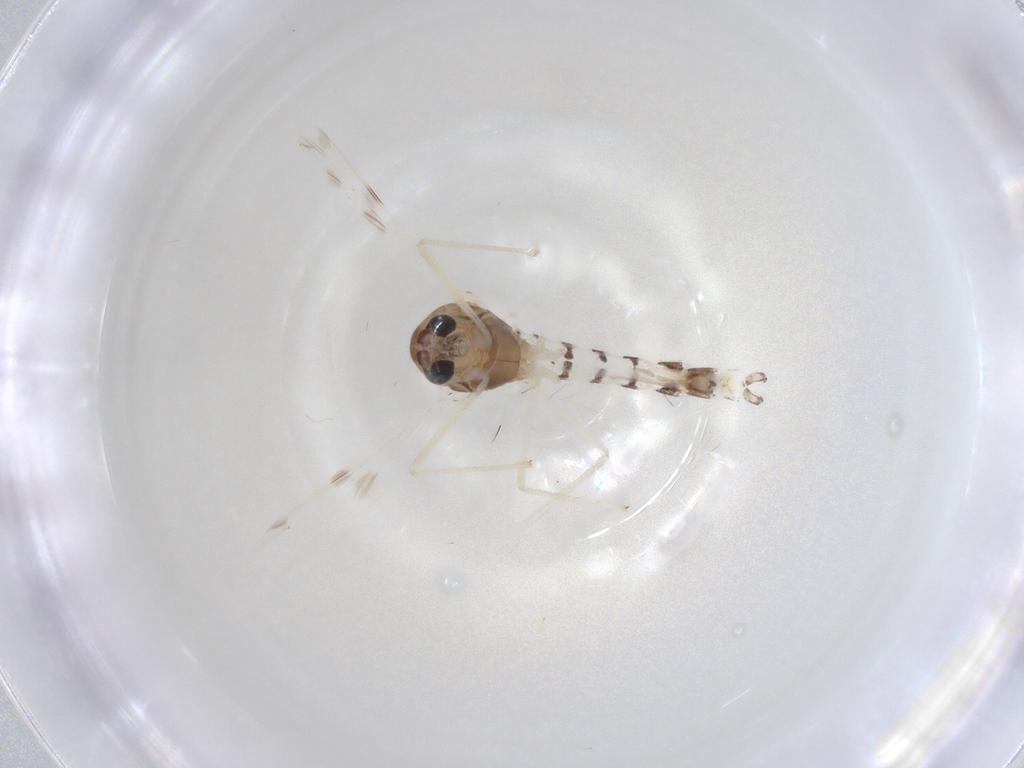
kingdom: Animalia
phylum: Arthropoda
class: Insecta
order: Diptera
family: Chironomidae
